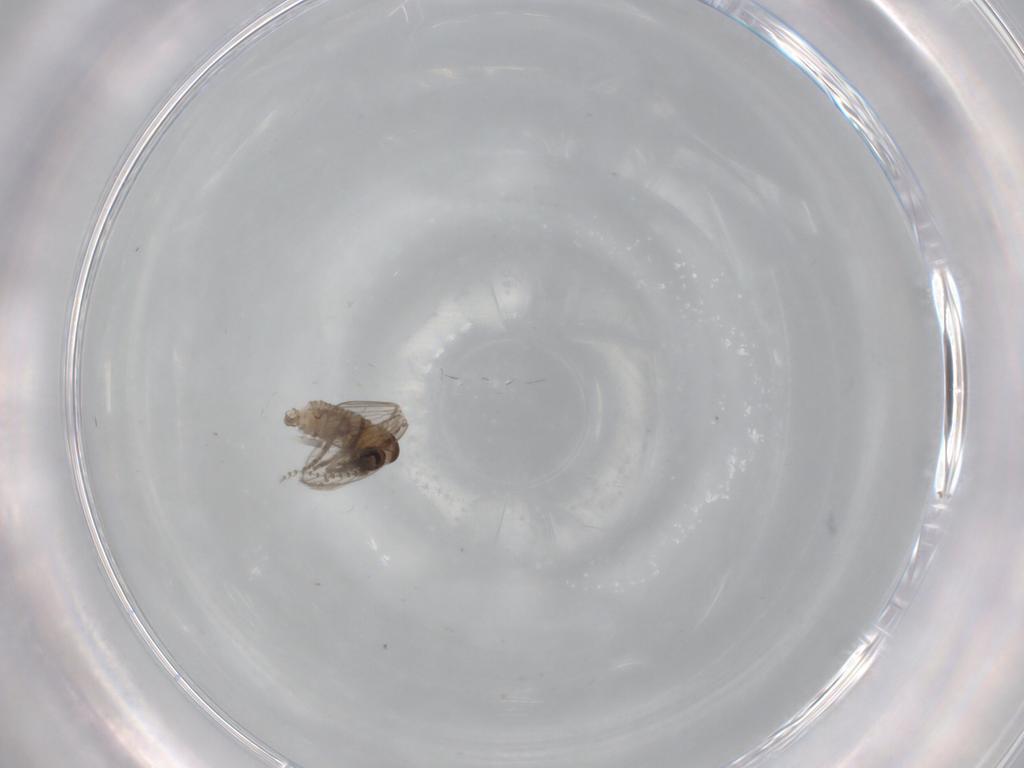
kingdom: Animalia
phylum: Arthropoda
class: Insecta
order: Diptera
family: Psychodidae
